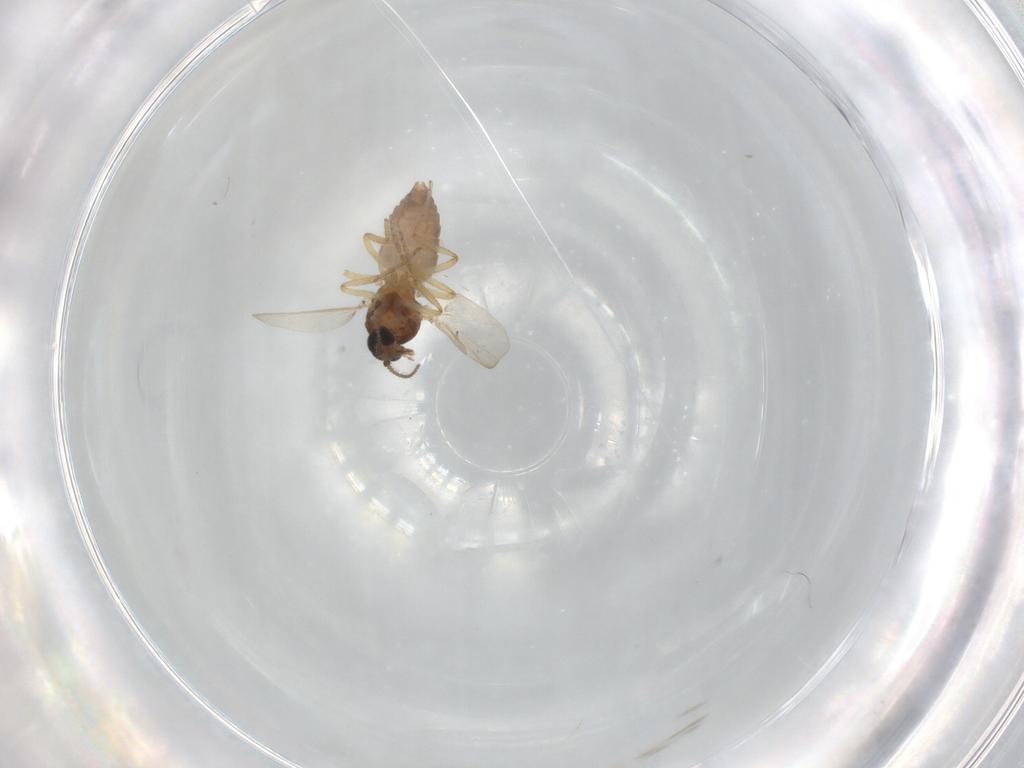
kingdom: Animalia
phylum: Arthropoda
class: Insecta
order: Diptera
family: Ceratopogonidae
